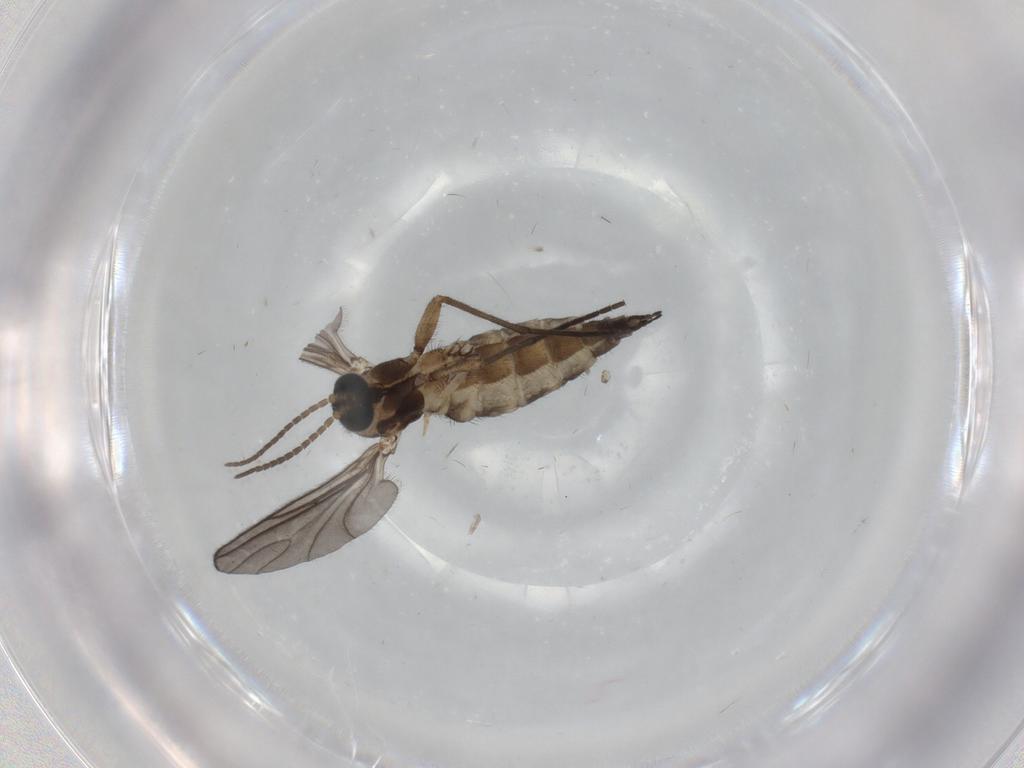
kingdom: Animalia
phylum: Arthropoda
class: Insecta
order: Diptera
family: Sciaridae
